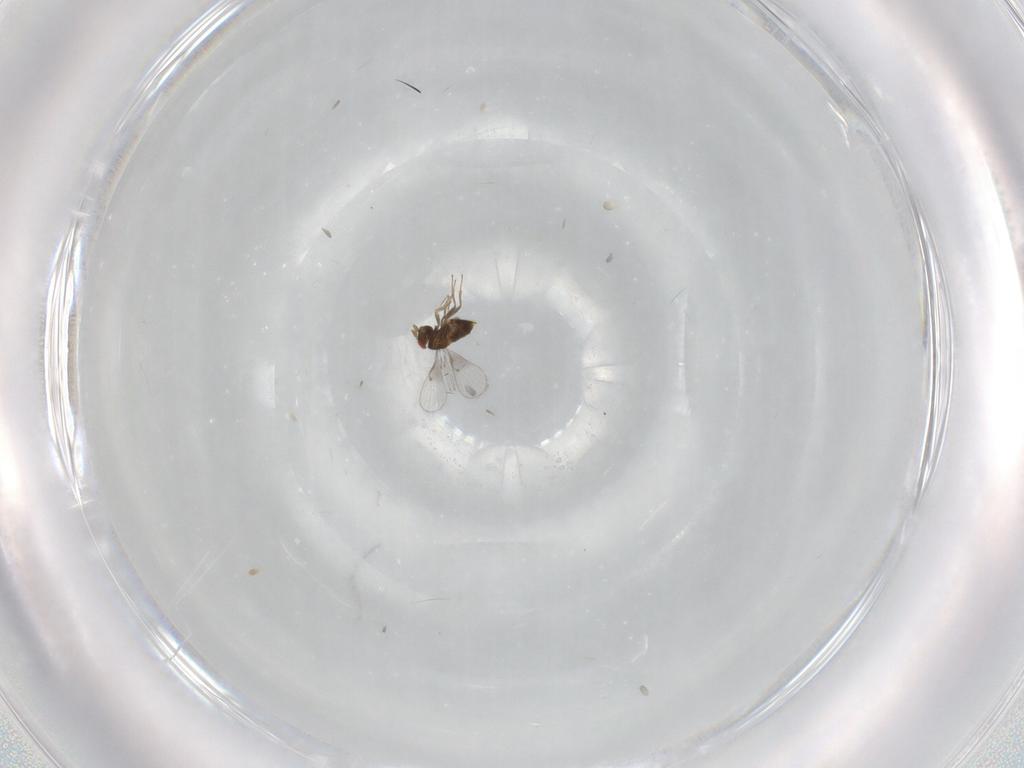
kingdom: Animalia
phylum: Arthropoda
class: Insecta
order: Hymenoptera
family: Trichogrammatidae
